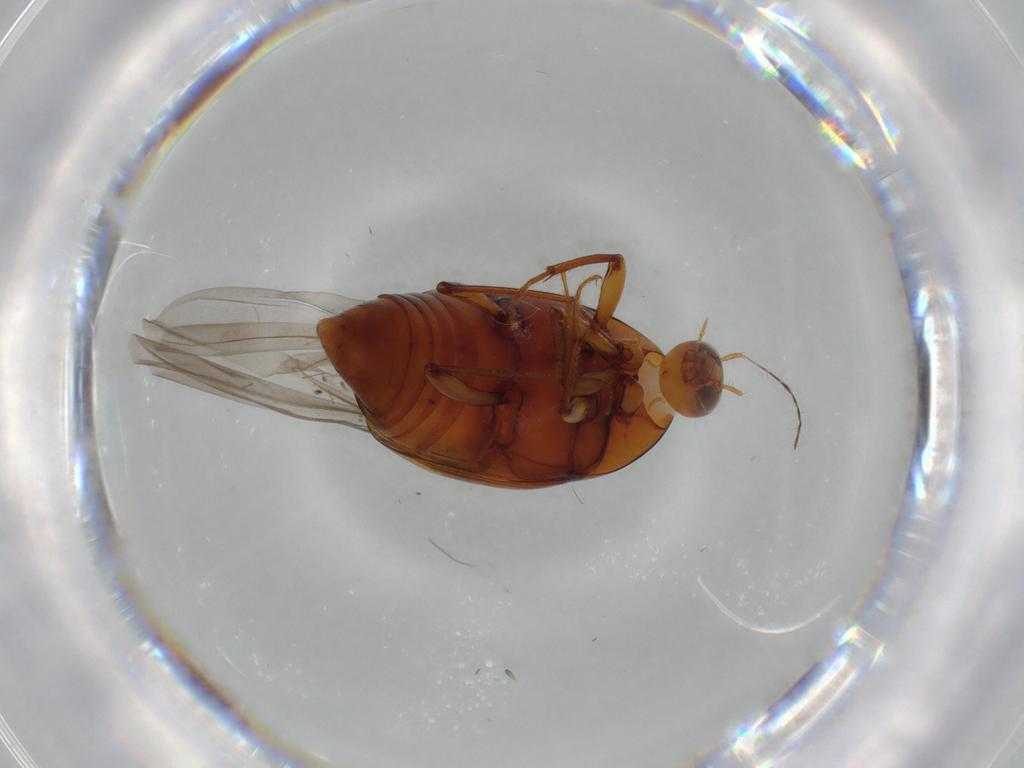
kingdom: Animalia
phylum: Arthropoda
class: Insecta
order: Coleoptera
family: Staphylinidae
